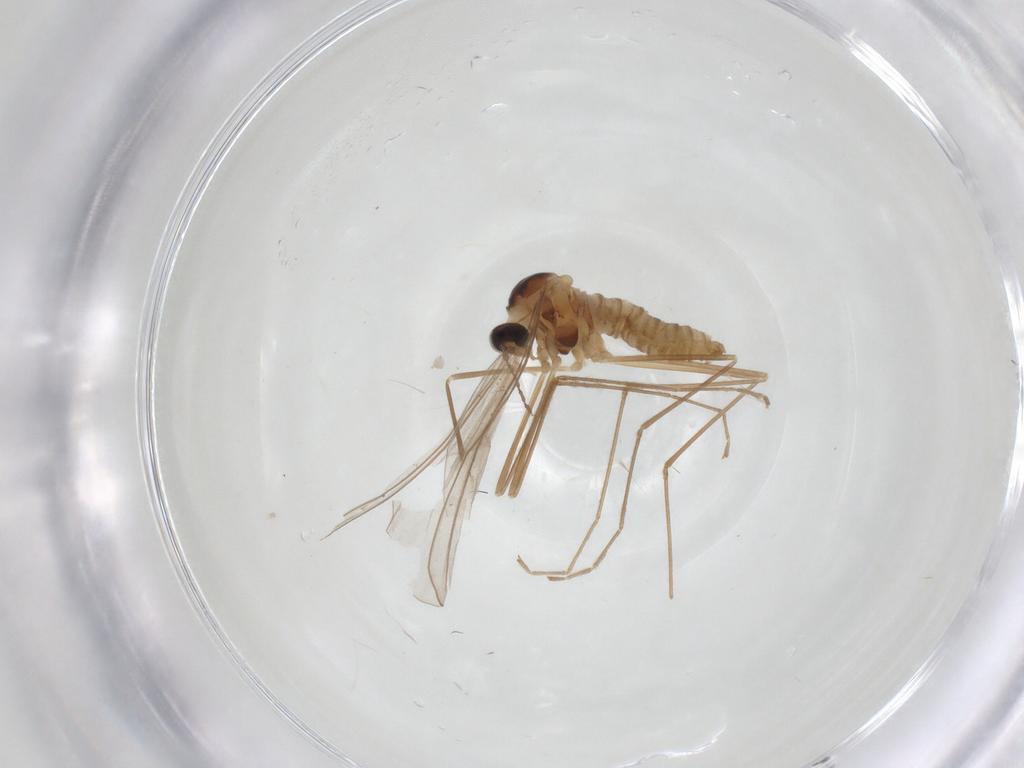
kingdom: Animalia
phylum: Arthropoda
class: Insecta
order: Diptera
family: Cecidomyiidae
